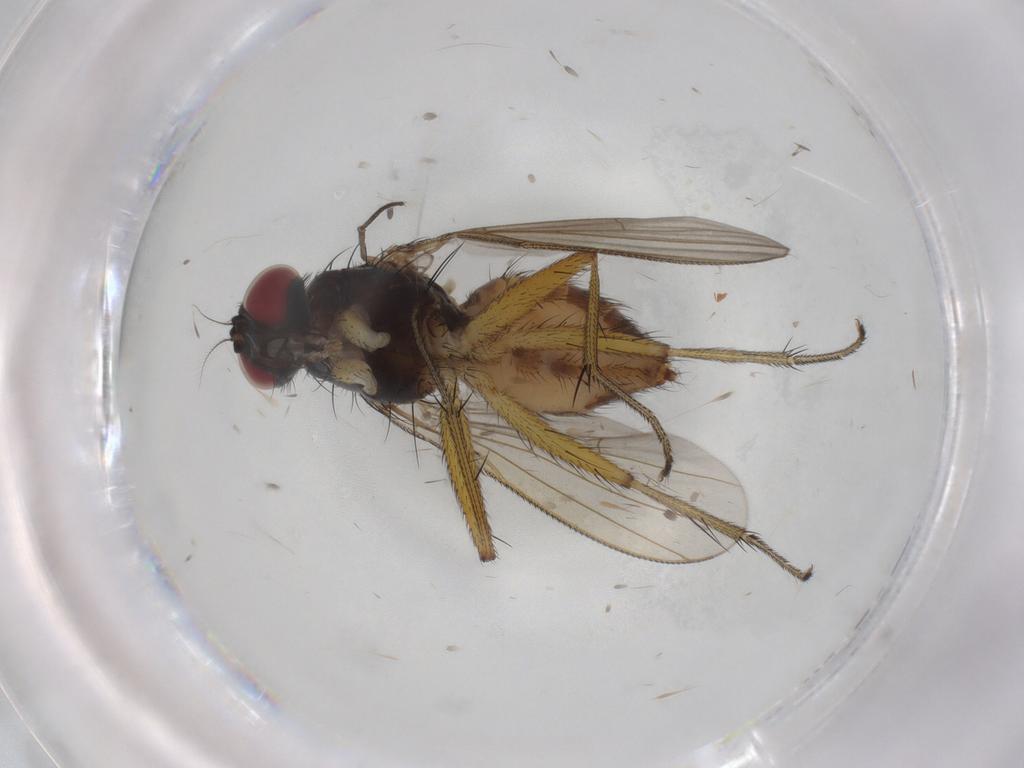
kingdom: Animalia
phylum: Arthropoda
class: Insecta
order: Diptera
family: Muscidae
